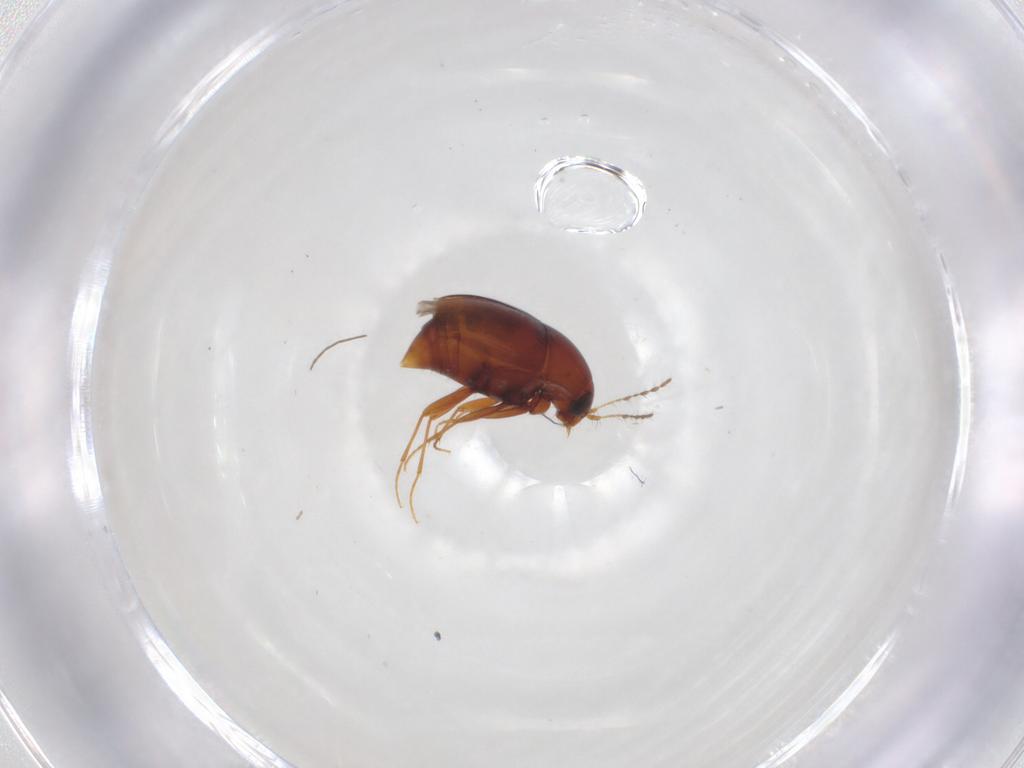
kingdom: Animalia
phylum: Arthropoda
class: Insecta
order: Coleoptera
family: Staphylinidae
